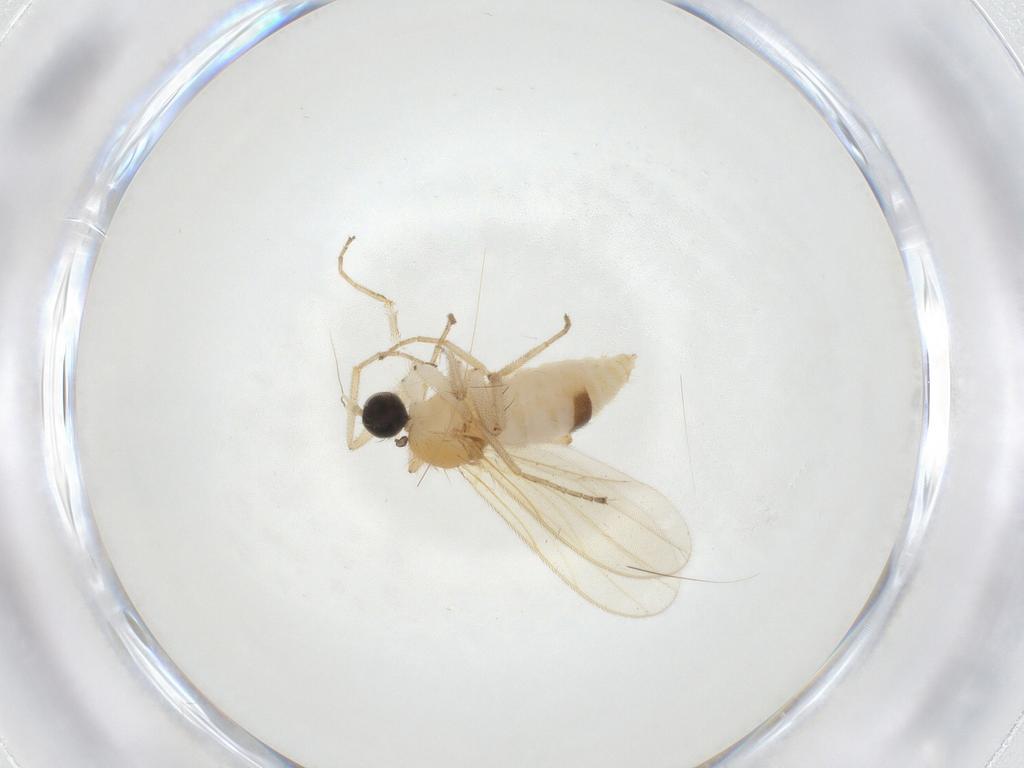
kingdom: Animalia
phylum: Arthropoda
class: Insecta
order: Diptera
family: Hybotidae
